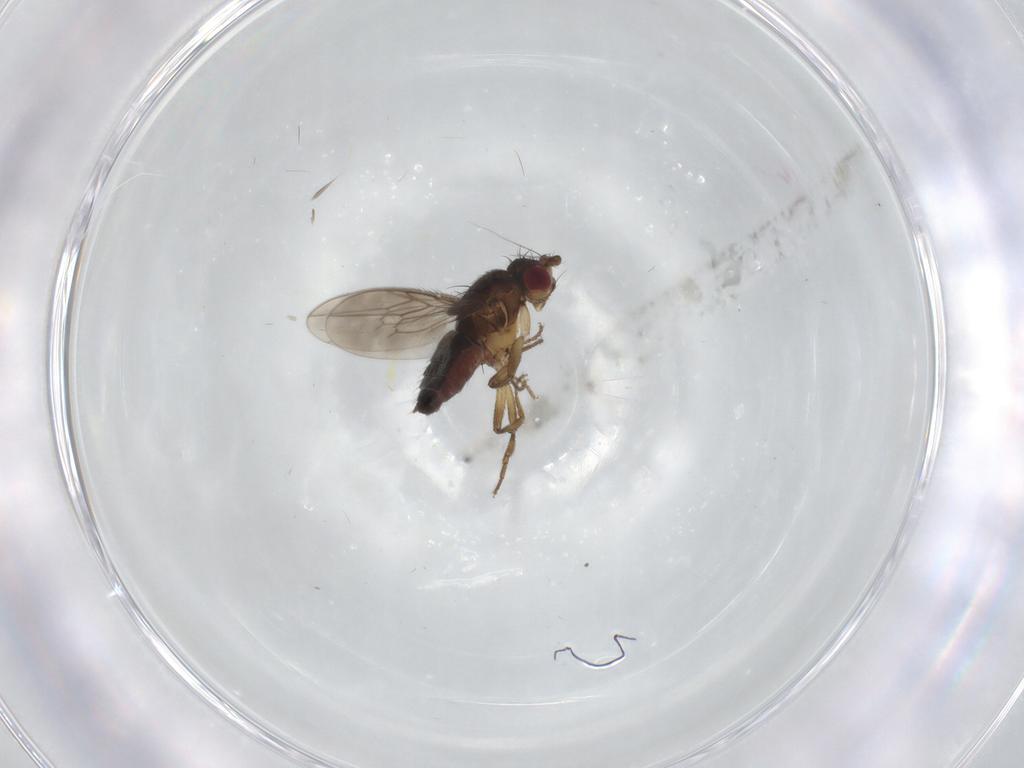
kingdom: Animalia
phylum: Arthropoda
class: Insecta
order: Diptera
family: Sphaeroceridae
